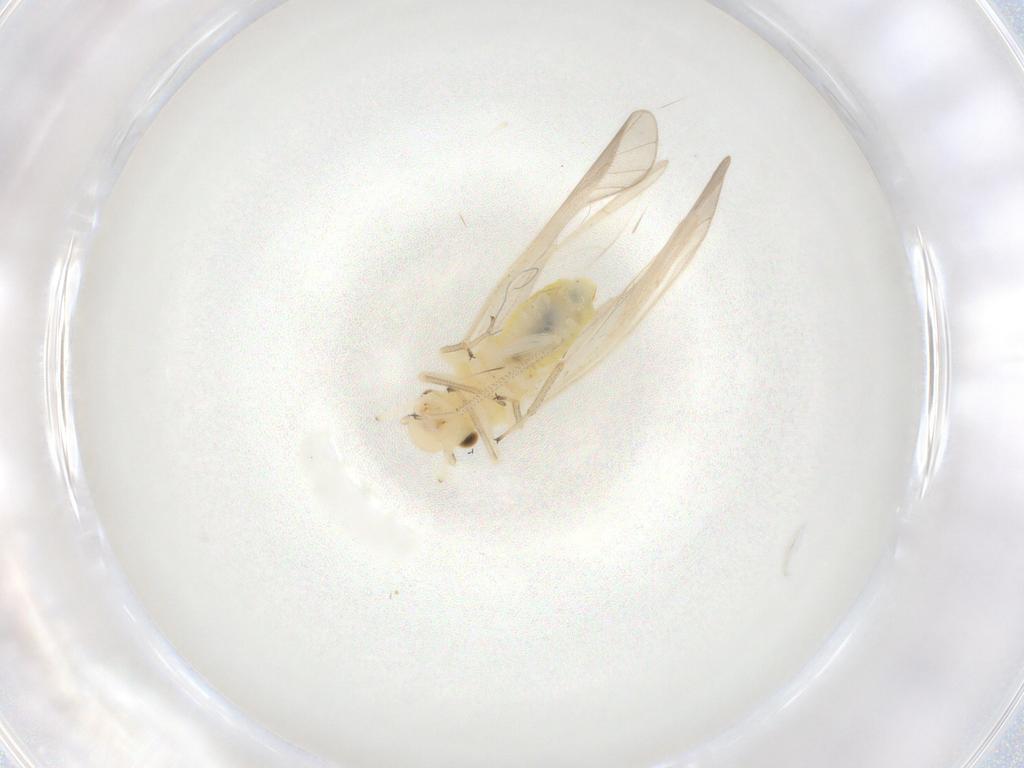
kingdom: Animalia
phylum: Arthropoda
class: Insecta
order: Psocodea
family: Caeciliusidae
